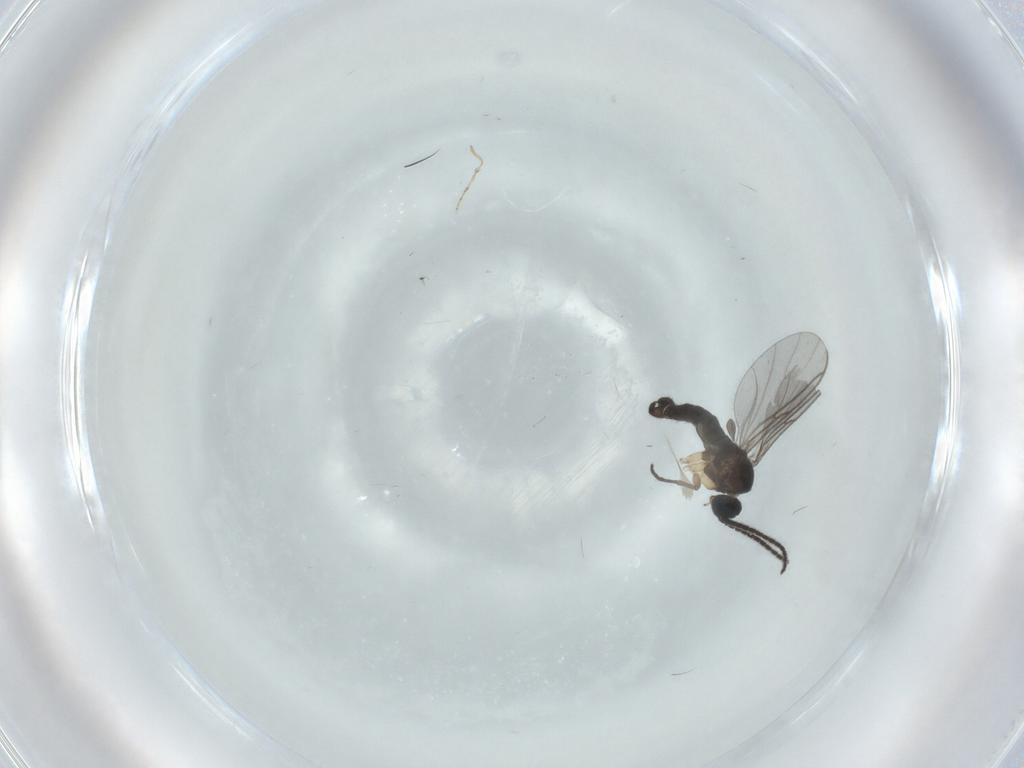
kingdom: Animalia
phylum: Arthropoda
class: Insecta
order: Diptera
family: Sciaridae
